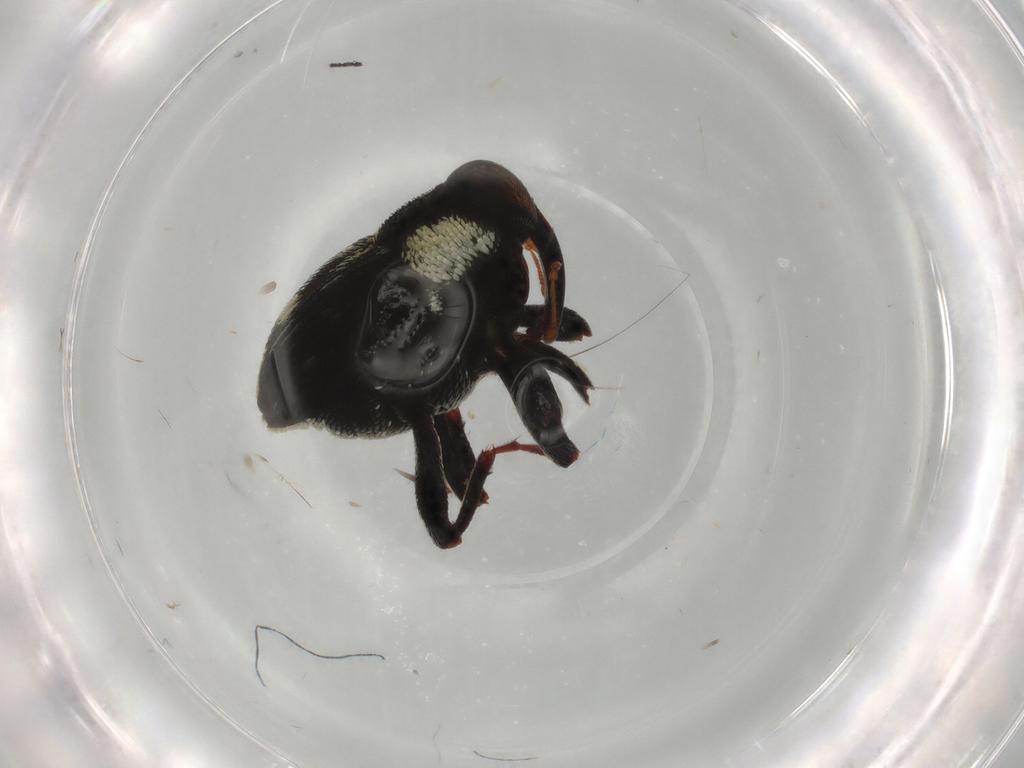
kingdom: Animalia
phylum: Arthropoda
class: Insecta
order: Coleoptera
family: Curculionidae
